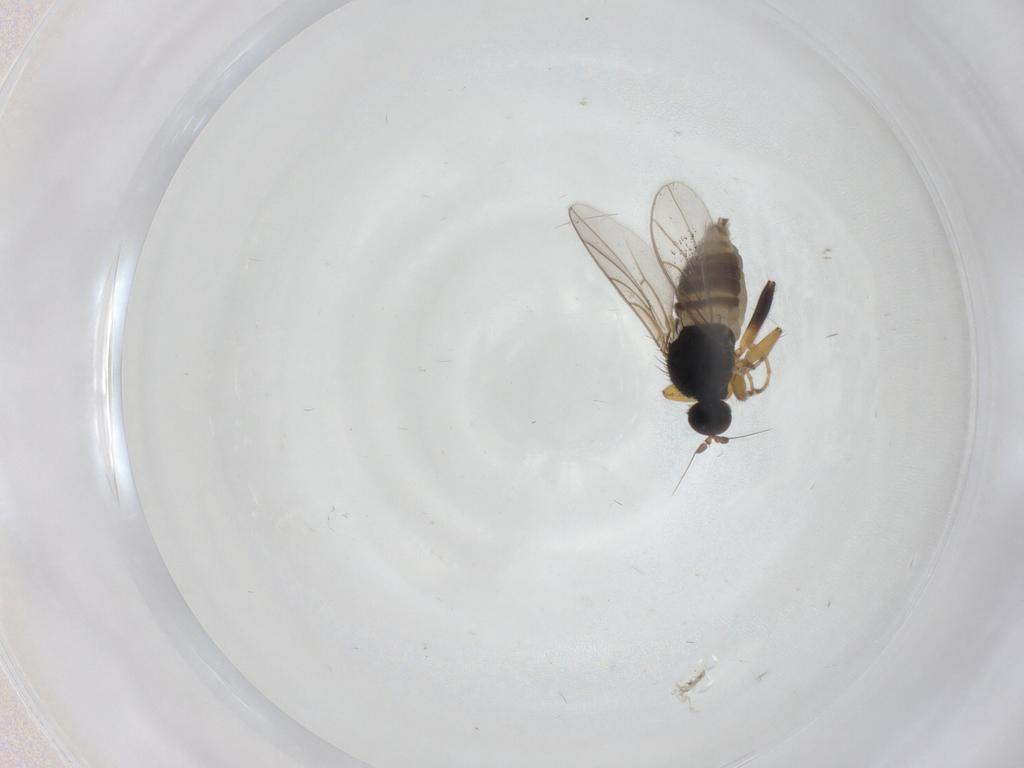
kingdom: Animalia
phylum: Arthropoda
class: Insecta
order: Diptera
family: Hybotidae
